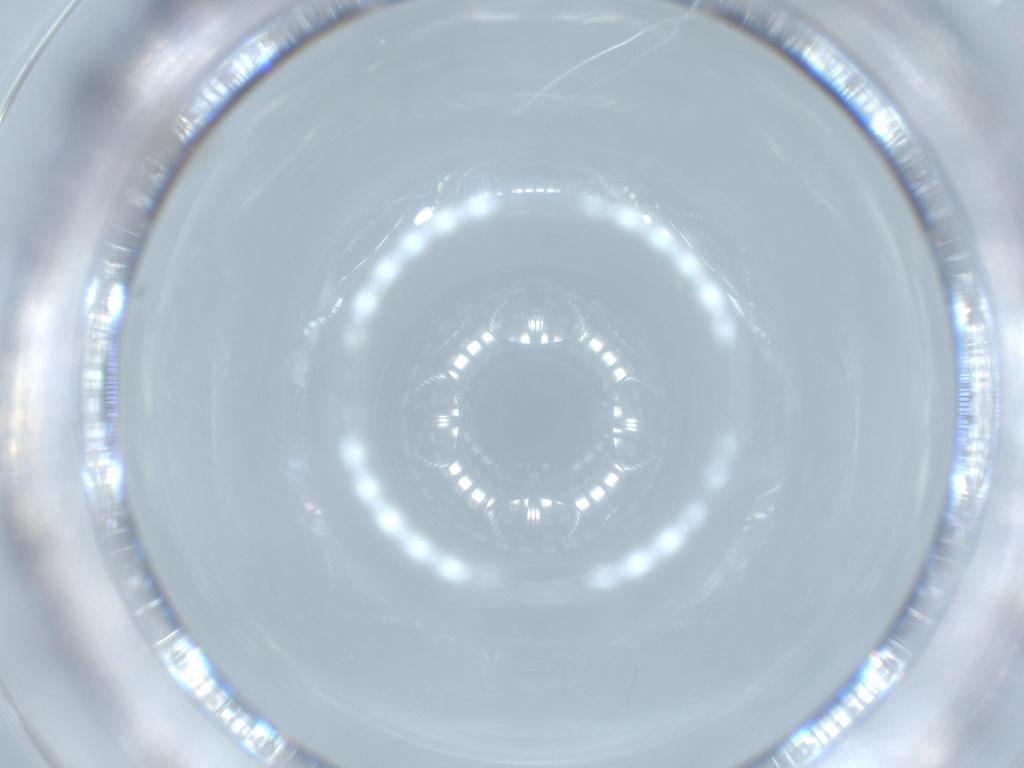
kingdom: Animalia
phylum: Arthropoda
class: Insecta
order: Diptera
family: Chironomidae
